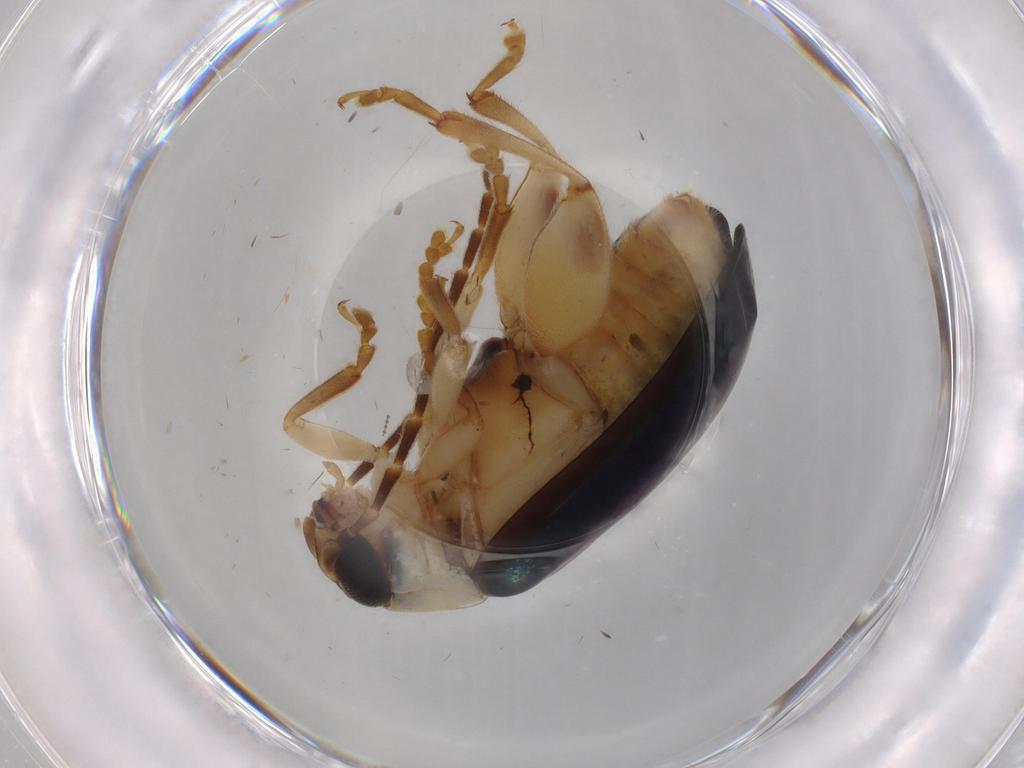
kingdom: Animalia
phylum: Arthropoda
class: Insecta
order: Coleoptera
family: Chrysomelidae
